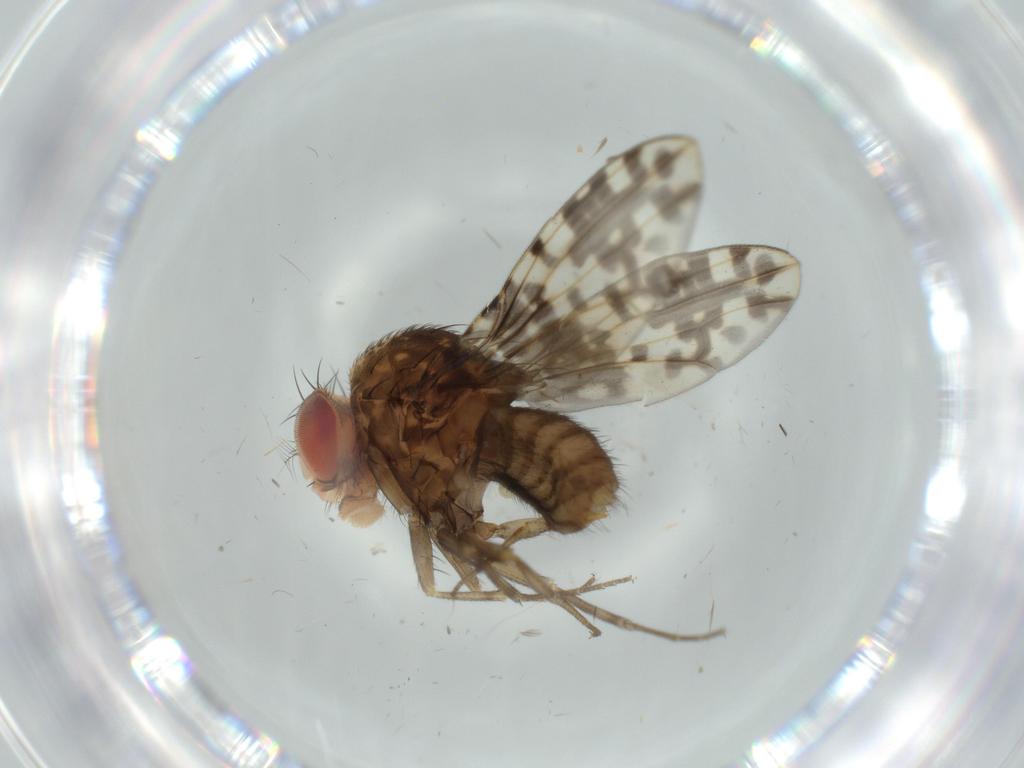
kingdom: Animalia
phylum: Arthropoda
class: Insecta
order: Diptera
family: Drosophilidae
